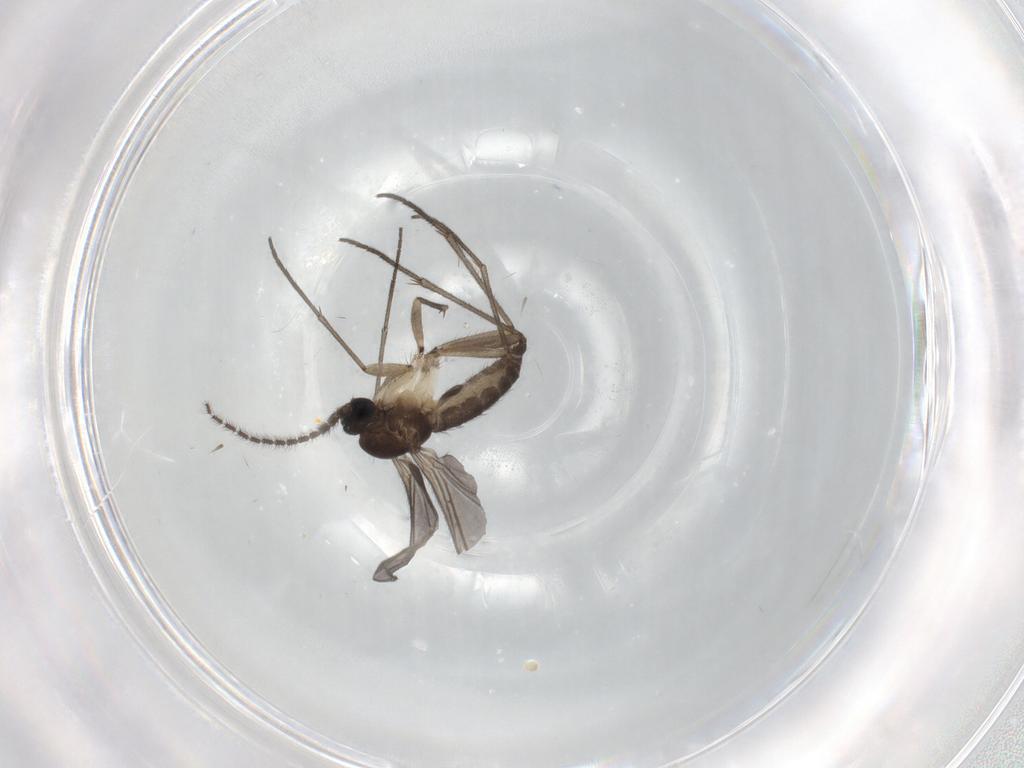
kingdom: Animalia
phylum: Arthropoda
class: Insecta
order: Diptera
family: Sciaridae
